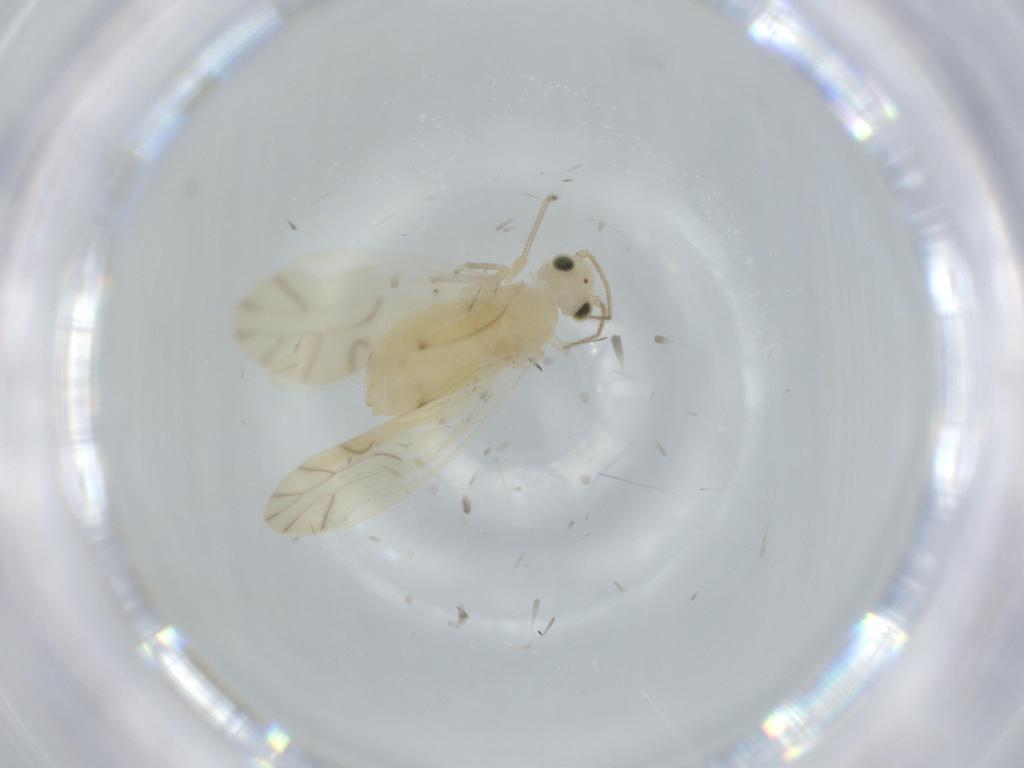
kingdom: Animalia
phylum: Arthropoda
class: Insecta
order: Psocodea
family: Caeciliusidae
